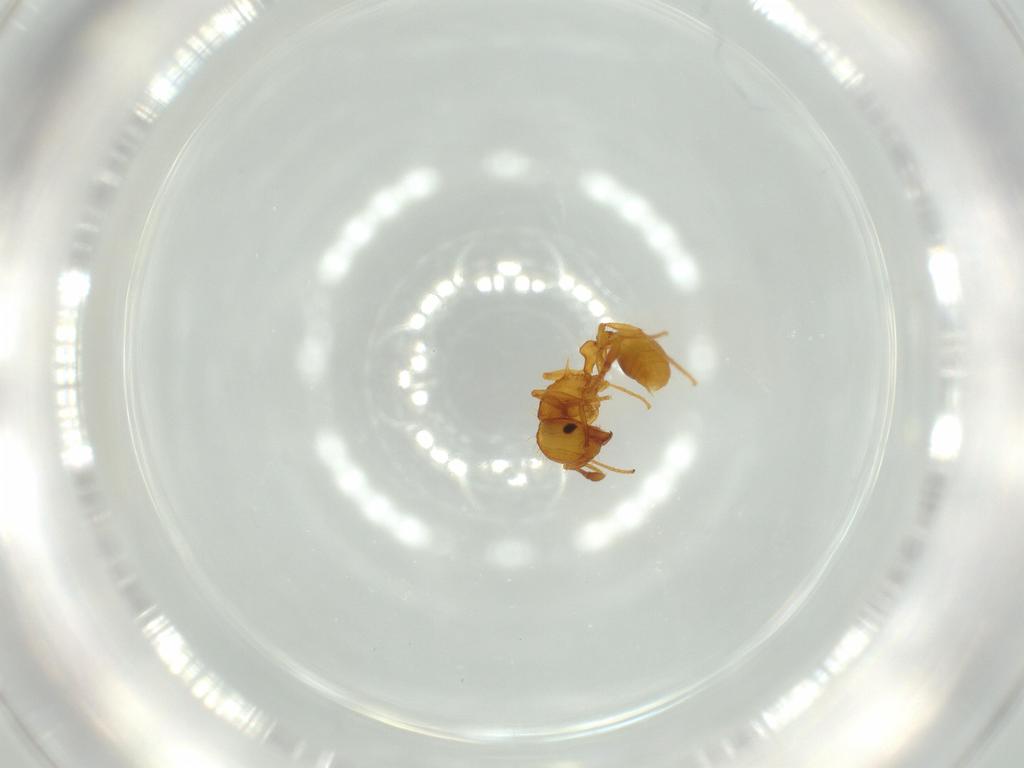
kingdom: Animalia
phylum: Arthropoda
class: Insecta
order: Hymenoptera
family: Formicidae
